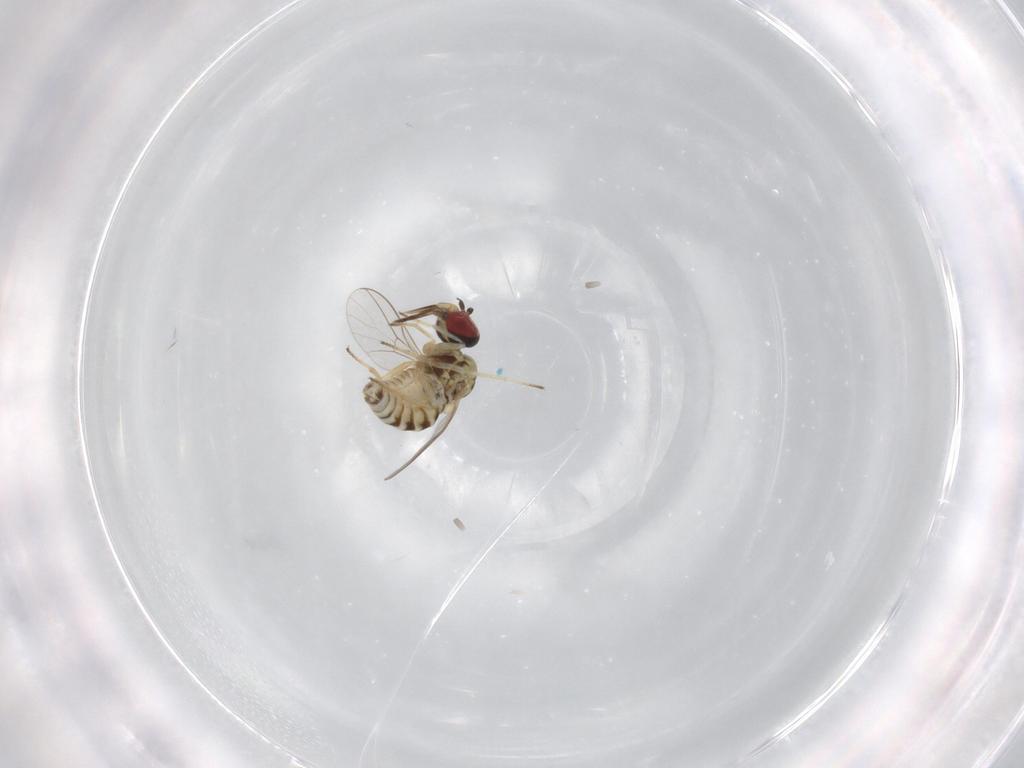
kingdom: Animalia
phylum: Arthropoda
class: Insecta
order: Diptera
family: Bombyliidae
